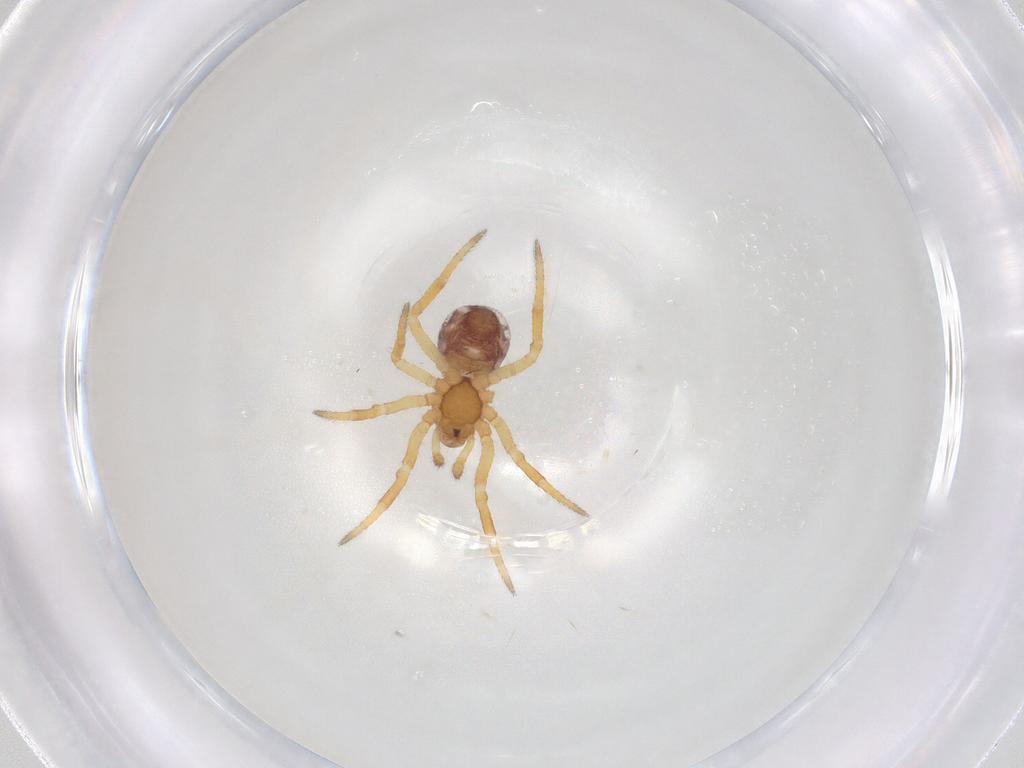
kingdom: Animalia
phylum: Arthropoda
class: Arachnida
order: Araneae
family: Theridiidae
